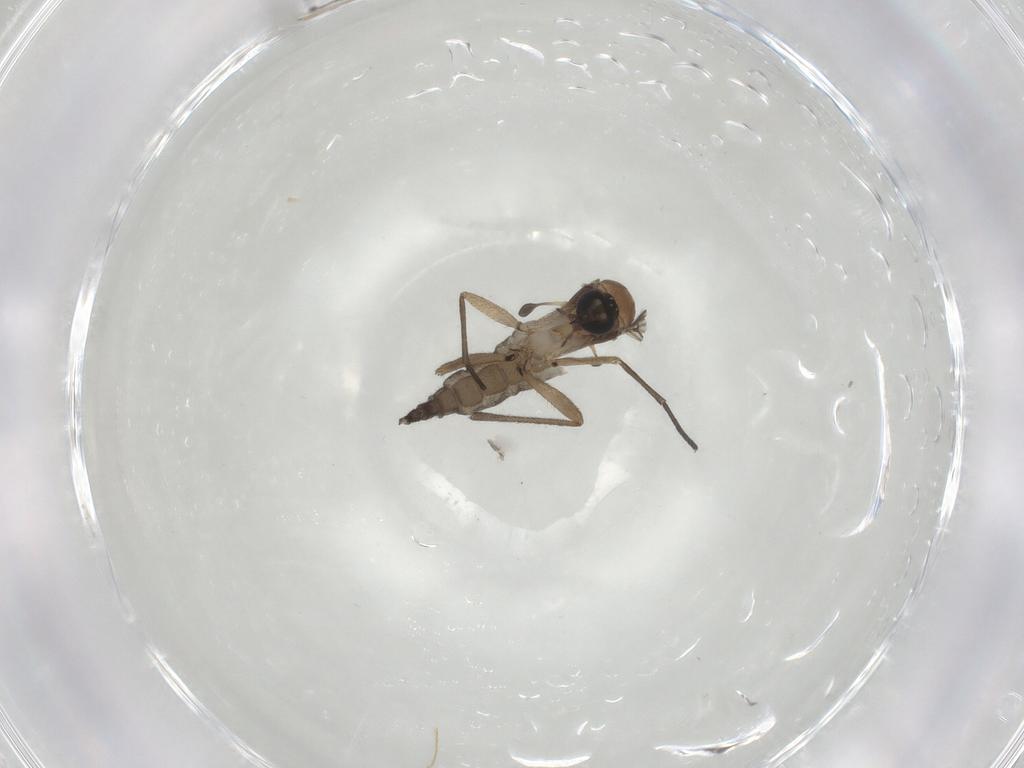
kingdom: Animalia
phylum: Arthropoda
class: Insecta
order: Diptera
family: Sciaridae
